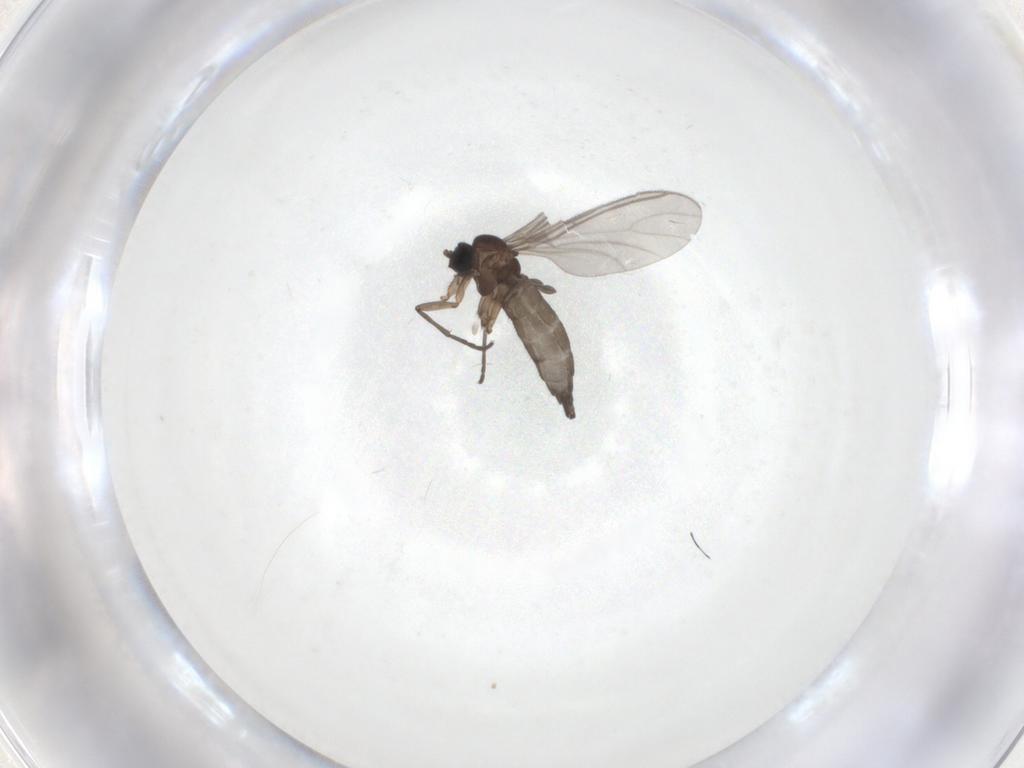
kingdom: Animalia
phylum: Arthropoda
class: Insecta
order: Diptera
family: Sciaridae
